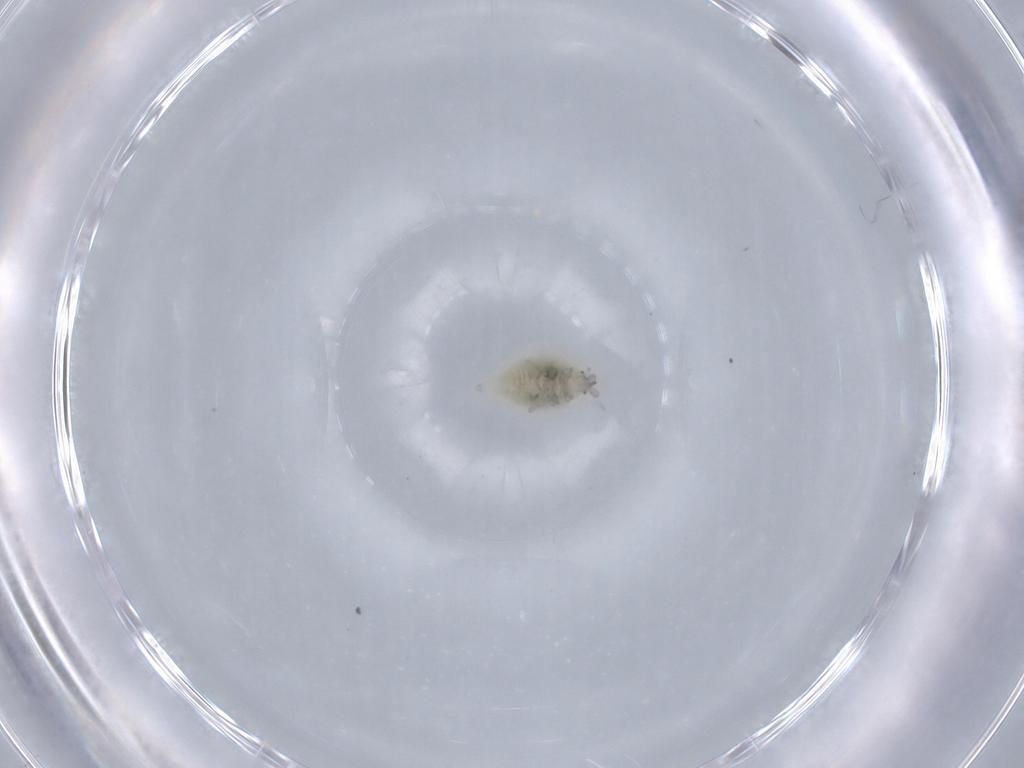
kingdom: Animalia
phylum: Arthropoda
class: Insecta
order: Neuroptera
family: Coniopterygidae
